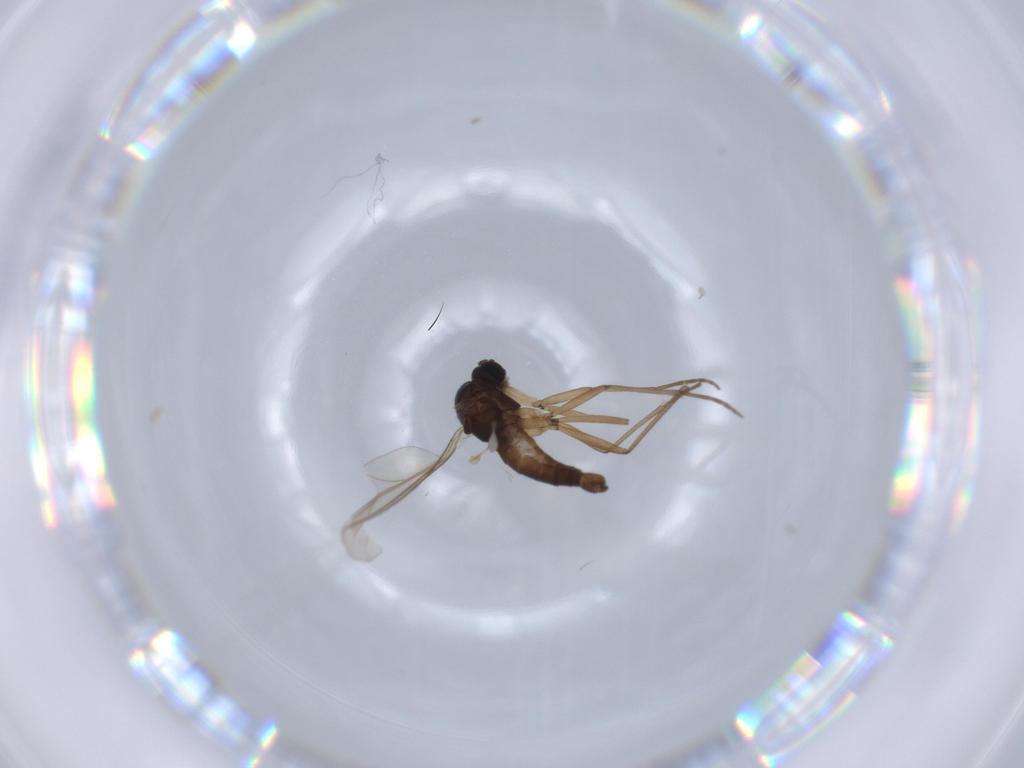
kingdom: Animalia
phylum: Arthropoda
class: Insecta
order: Diptera
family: Sciaridae
